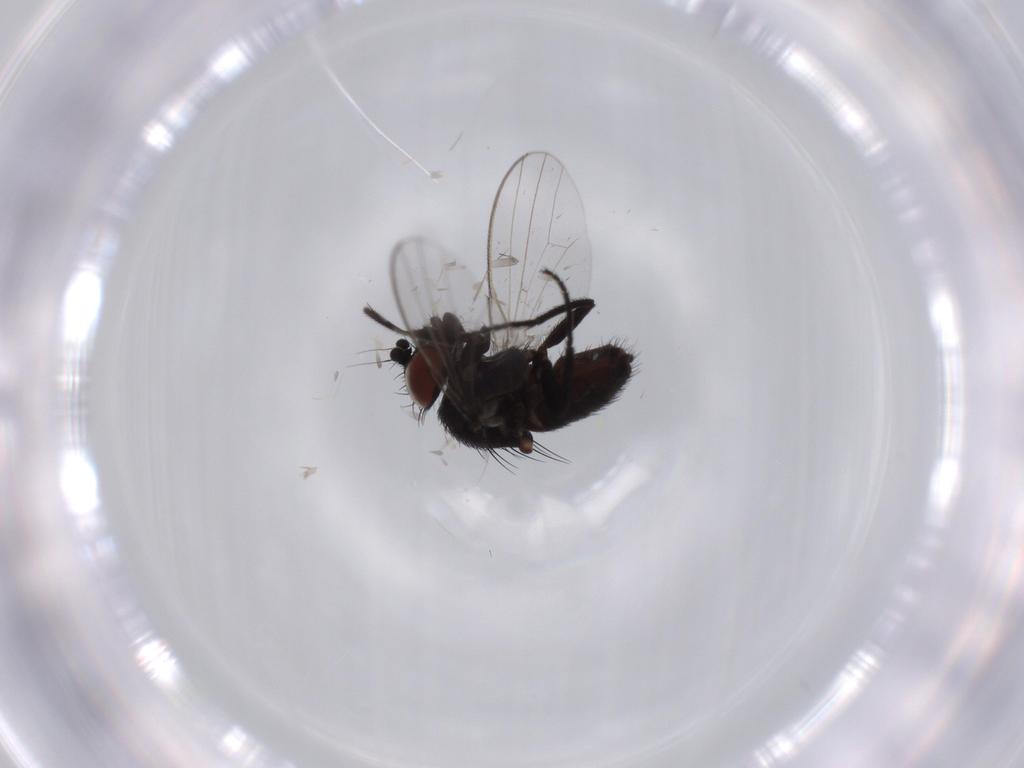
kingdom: Animalia
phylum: Arthropoda
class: Insecta
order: Diptera
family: Milichiidae
